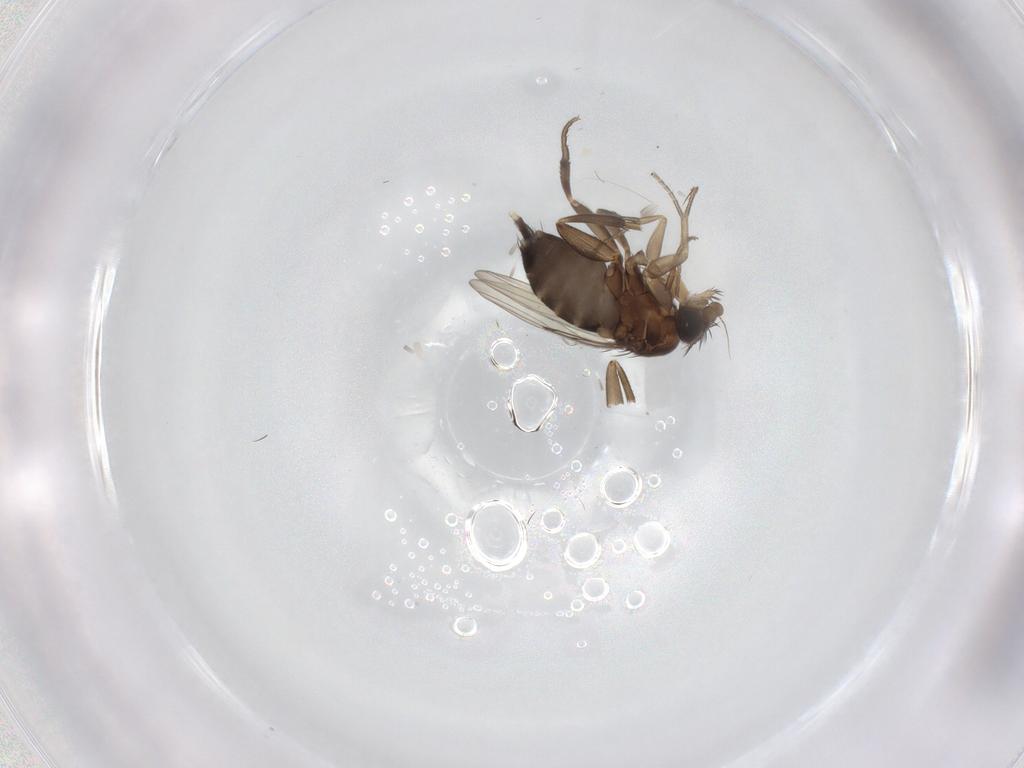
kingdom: Animalia
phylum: Arthropoda
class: Insecta
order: Diptera
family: Phoridae
